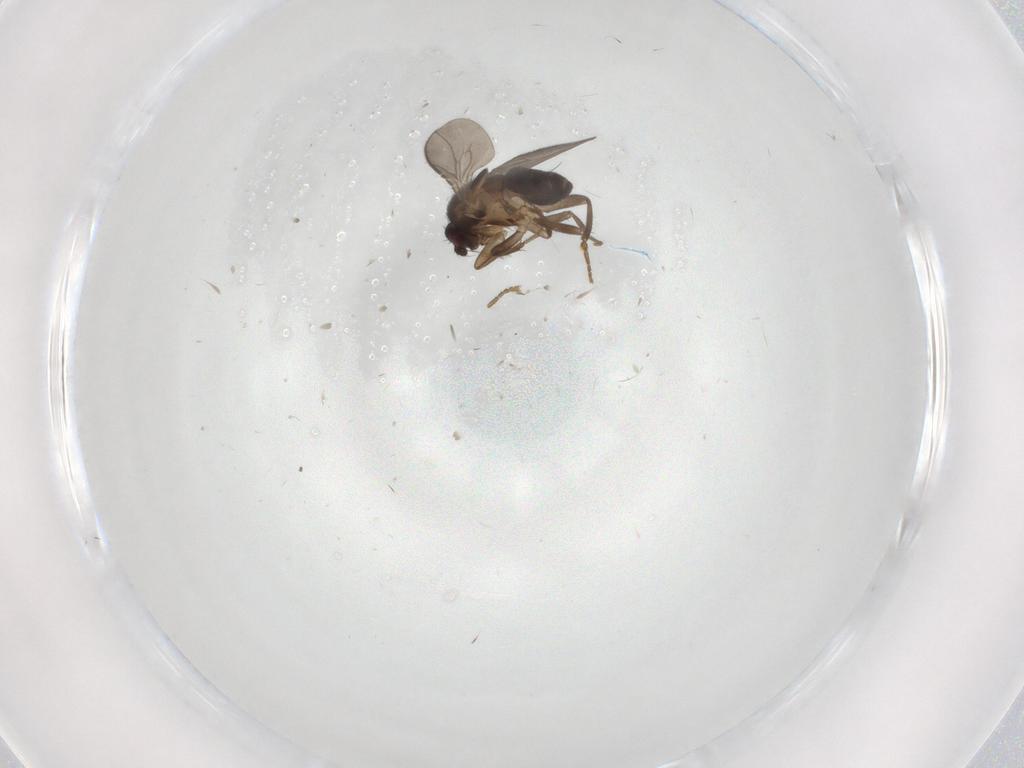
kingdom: Animalia
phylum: Arthropoda
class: Insecta
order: Diptera
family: Sphaeroceridae
